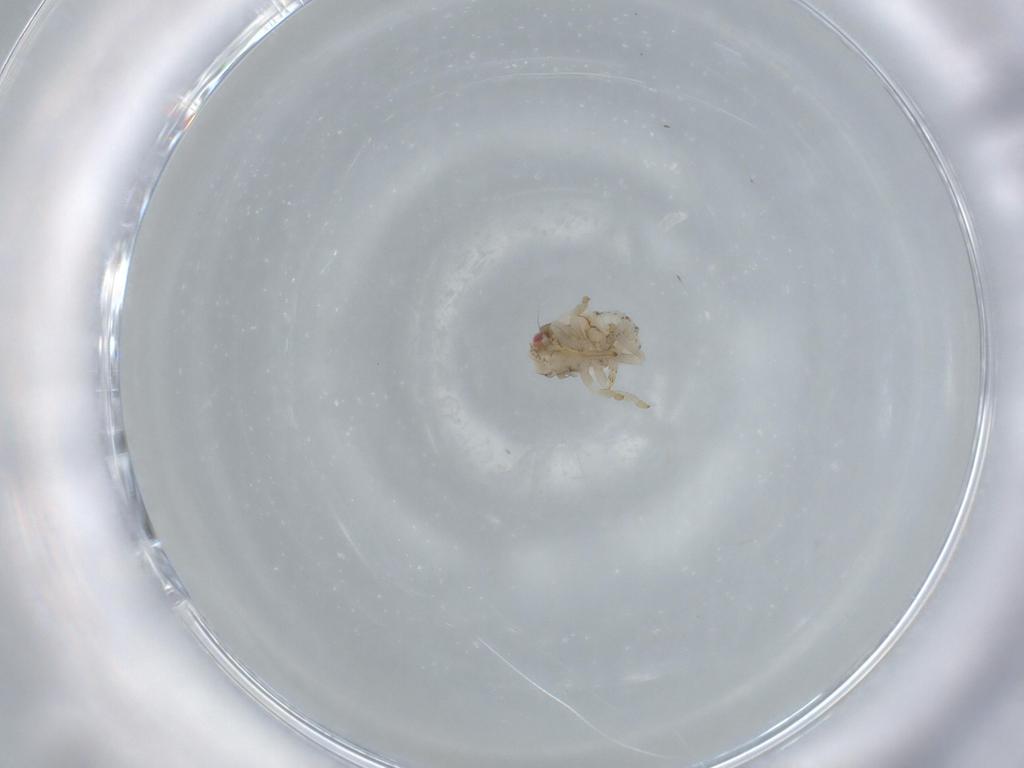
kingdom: Animalia
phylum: Arthropoda
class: Insecta
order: Hemiptera
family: Acanaloniidae
